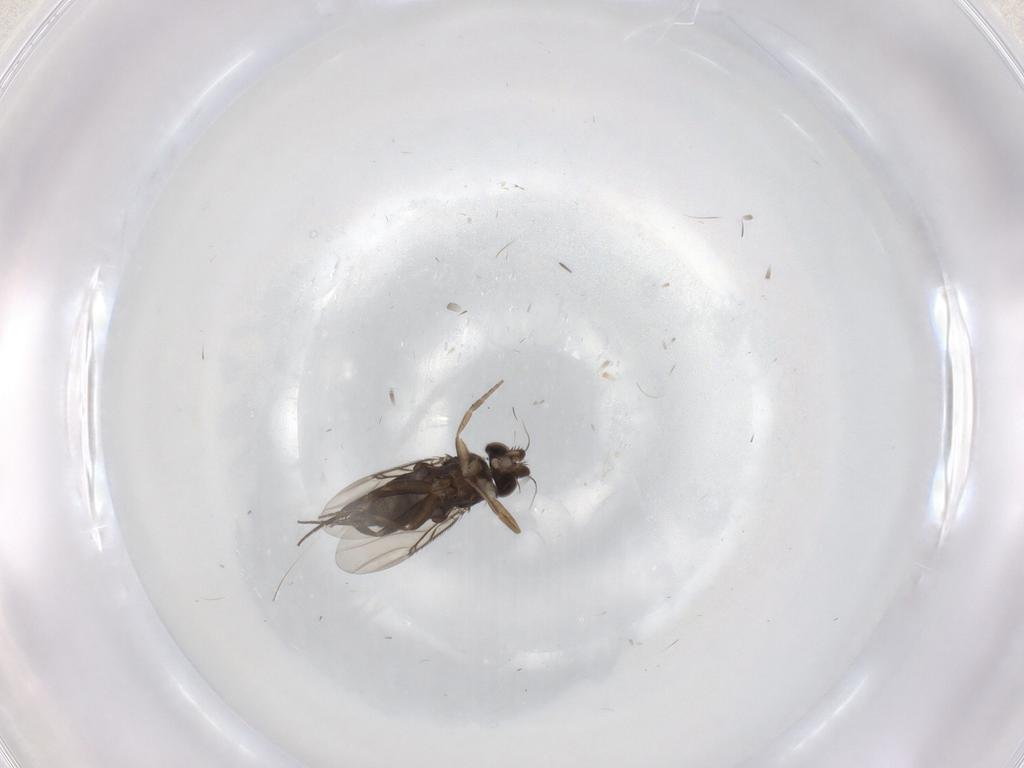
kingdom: Animalia
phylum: Arthropoda
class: Insecta
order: Diptera
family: Phoridae
